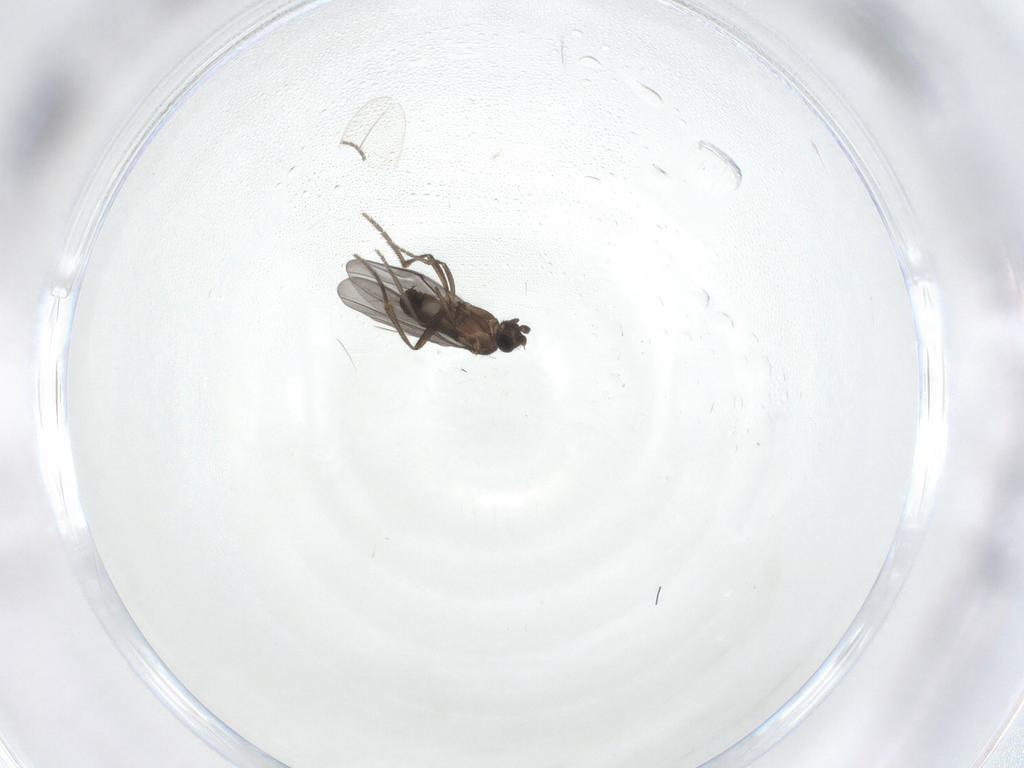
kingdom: Animalia
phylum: Arthropoda
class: Insecta
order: Diptera
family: Phoridae
